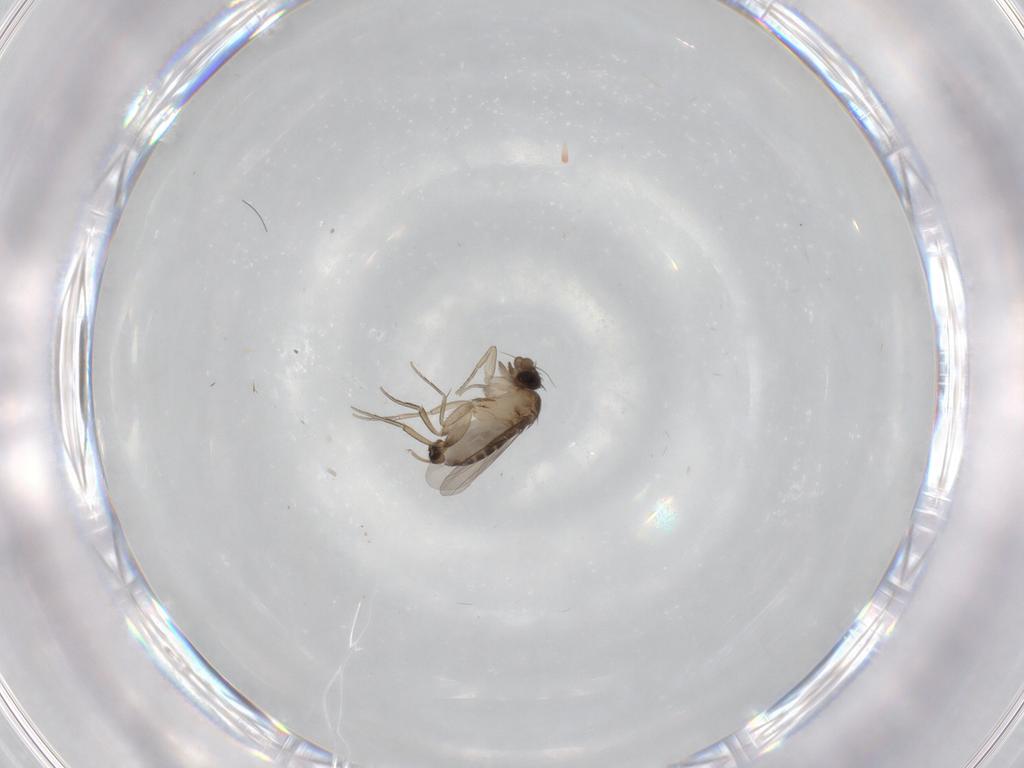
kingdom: Animalia
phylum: Arthropoda
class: Insecta
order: Diptera
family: Phoridae
